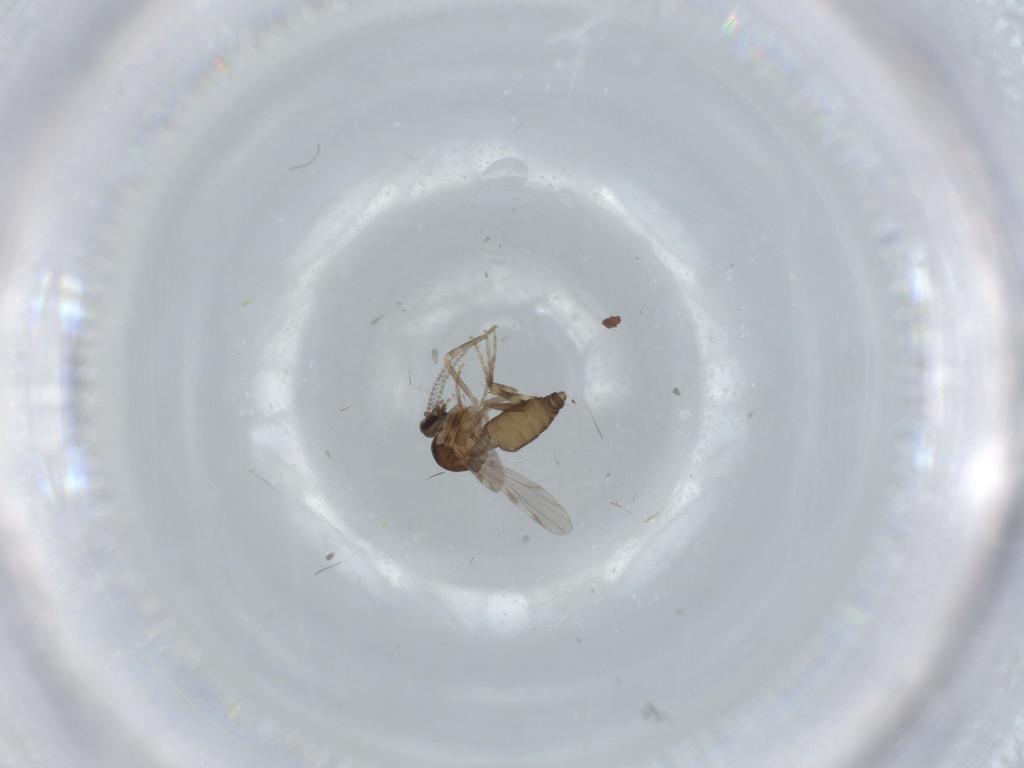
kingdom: Animalia
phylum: Arthropoda
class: Insecta
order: Diptera
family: Ceratopogonidae
